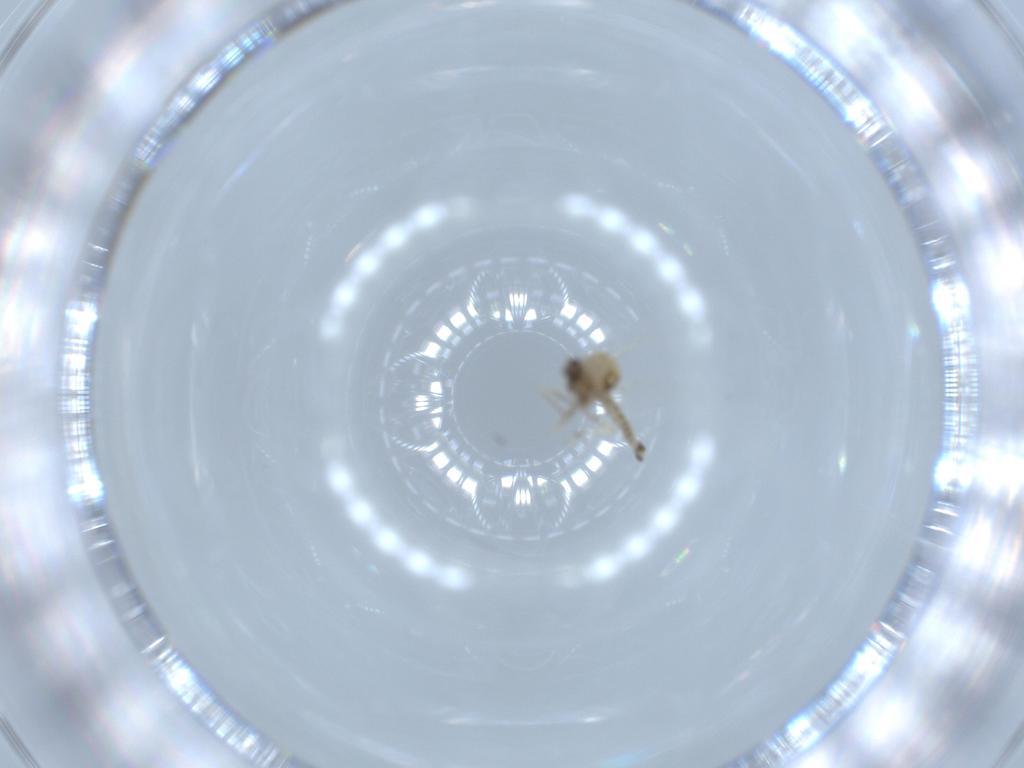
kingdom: Animalia
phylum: Arthropoda
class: Insecta
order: Diptera
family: Ceratopogonidae
